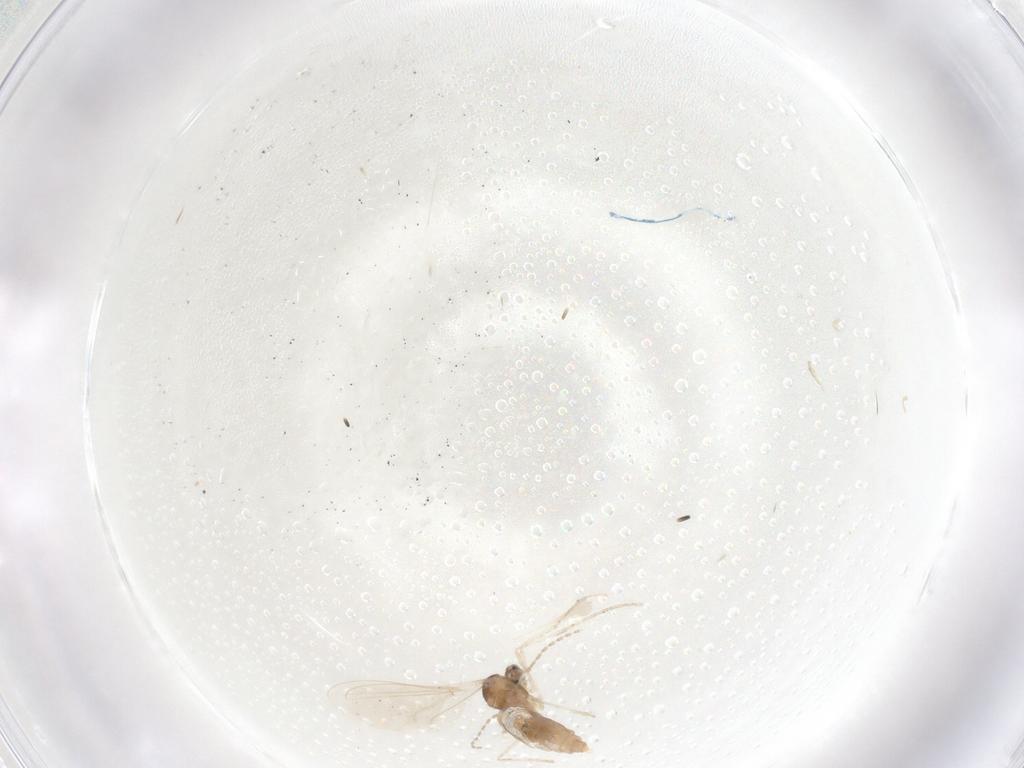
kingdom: Animalia
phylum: Arthropoda
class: Insecta
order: Diptera
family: Cecidomyiidae
